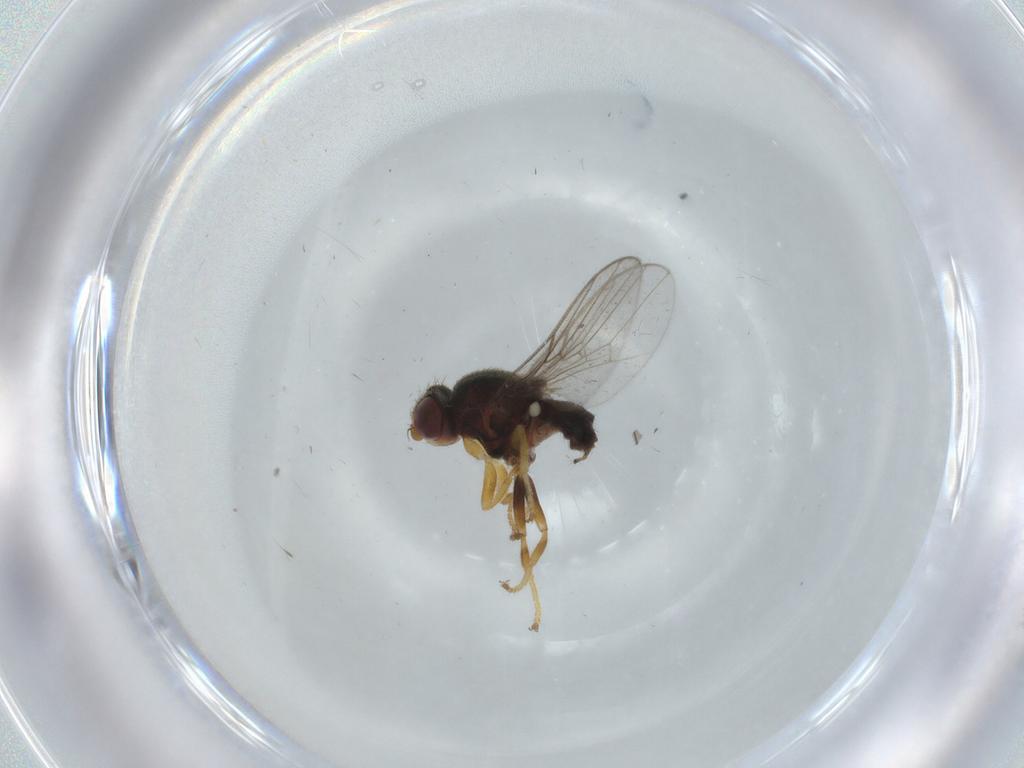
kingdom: Animalia
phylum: Arthropoda
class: Insecta
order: Diptera
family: Chloropidae
